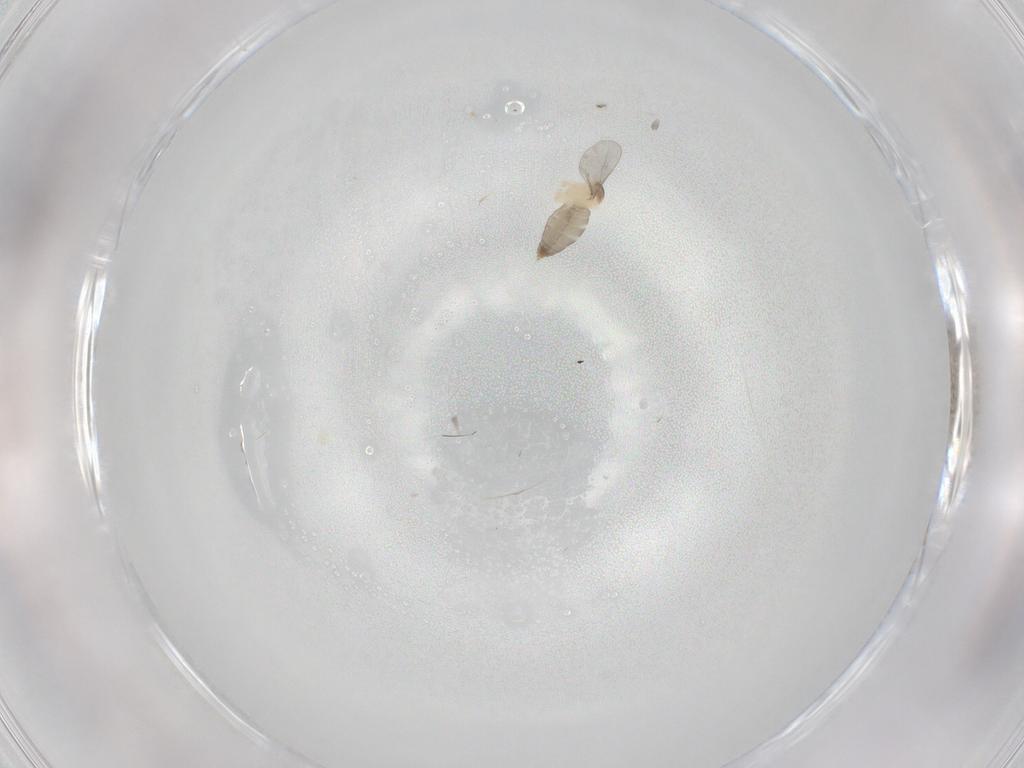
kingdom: Animalia
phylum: Arthropoda
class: Insecta
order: Diptera
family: Cecidomyiidae
